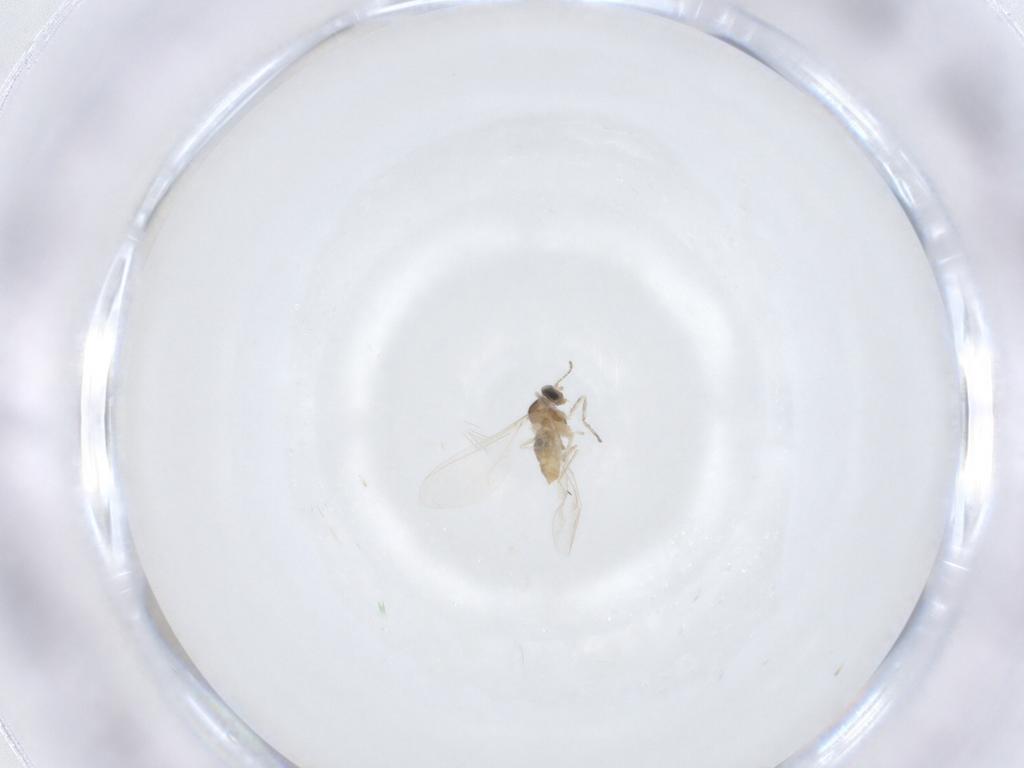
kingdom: Animalia
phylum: Arthropoda
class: Insecta
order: Diptera
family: Cecidomyiidae
